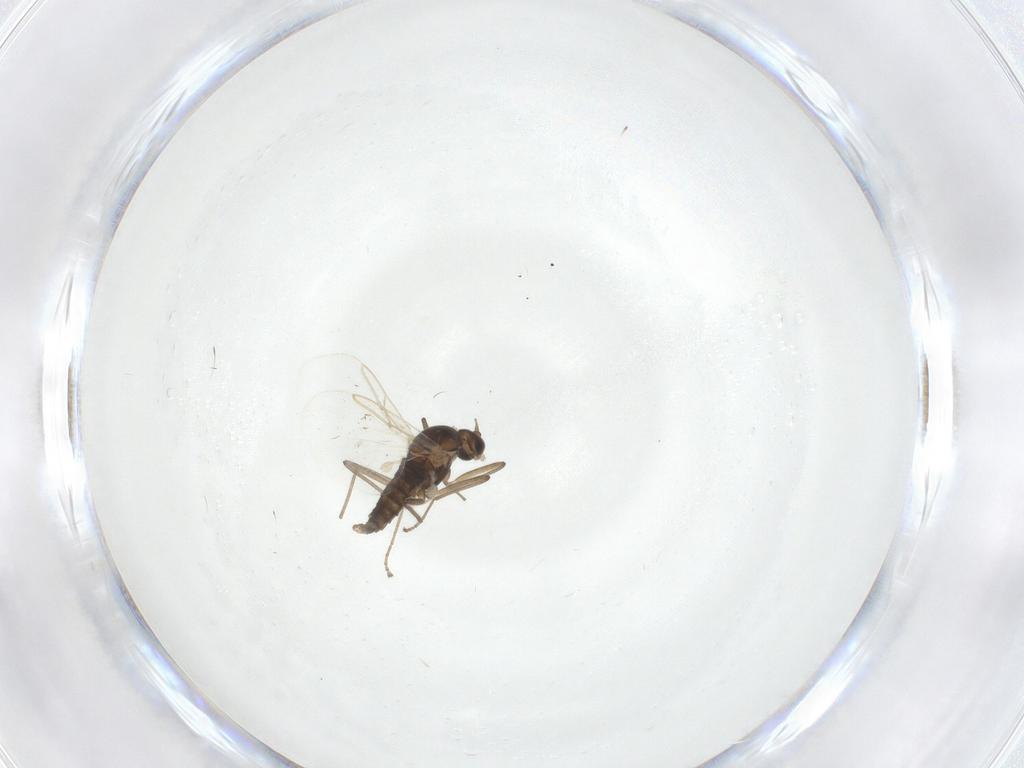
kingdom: Animalia
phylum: Arthropoda
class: Insecta
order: Diptera
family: Cecidomyiidae
